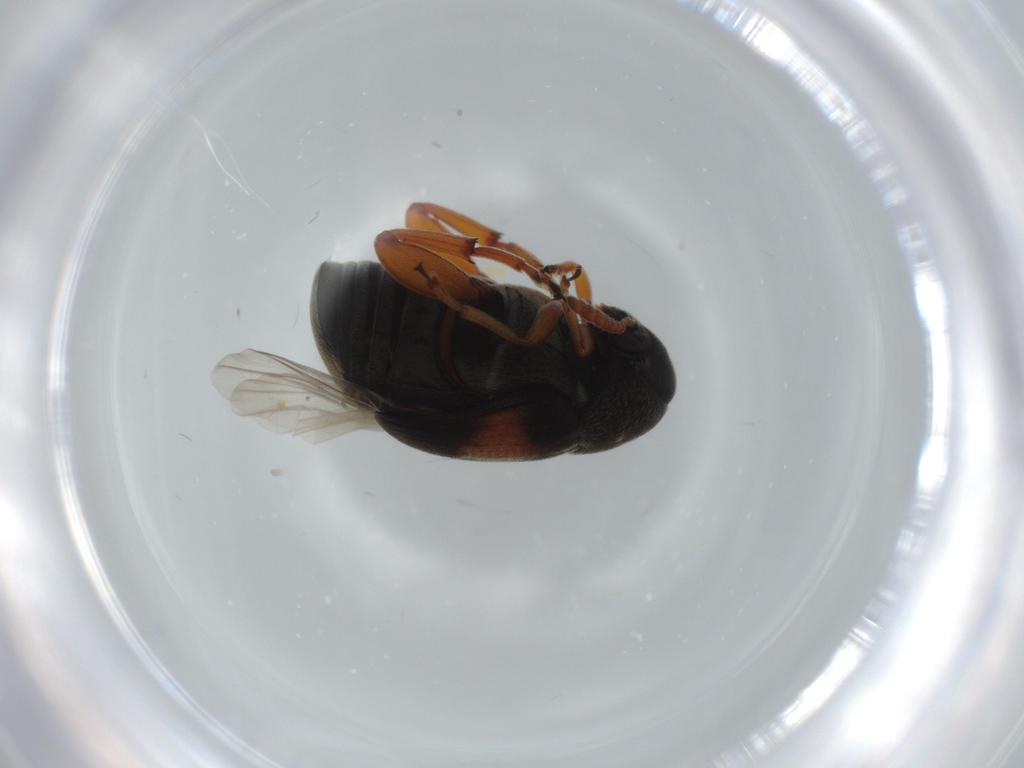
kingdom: Animalia
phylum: Arthropoda
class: Insecta
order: Coleoptera
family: Chrysomelidae
